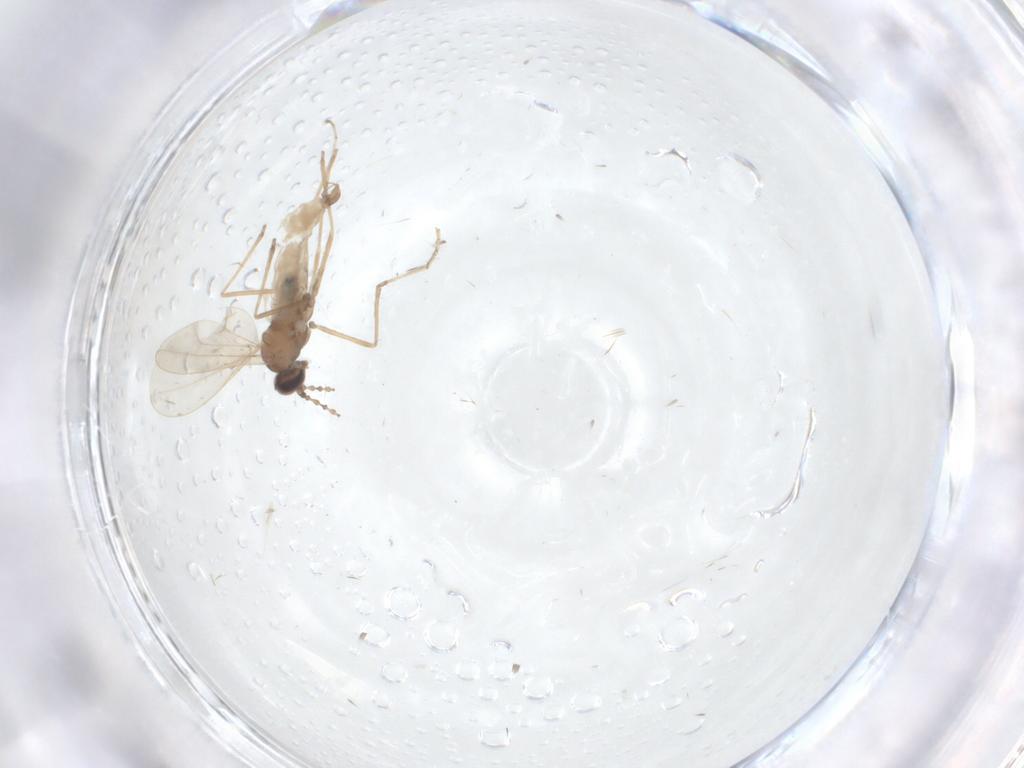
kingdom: Animalia
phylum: Arthropoda
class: Insecta
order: Diptera
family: Cecidomyiidae
